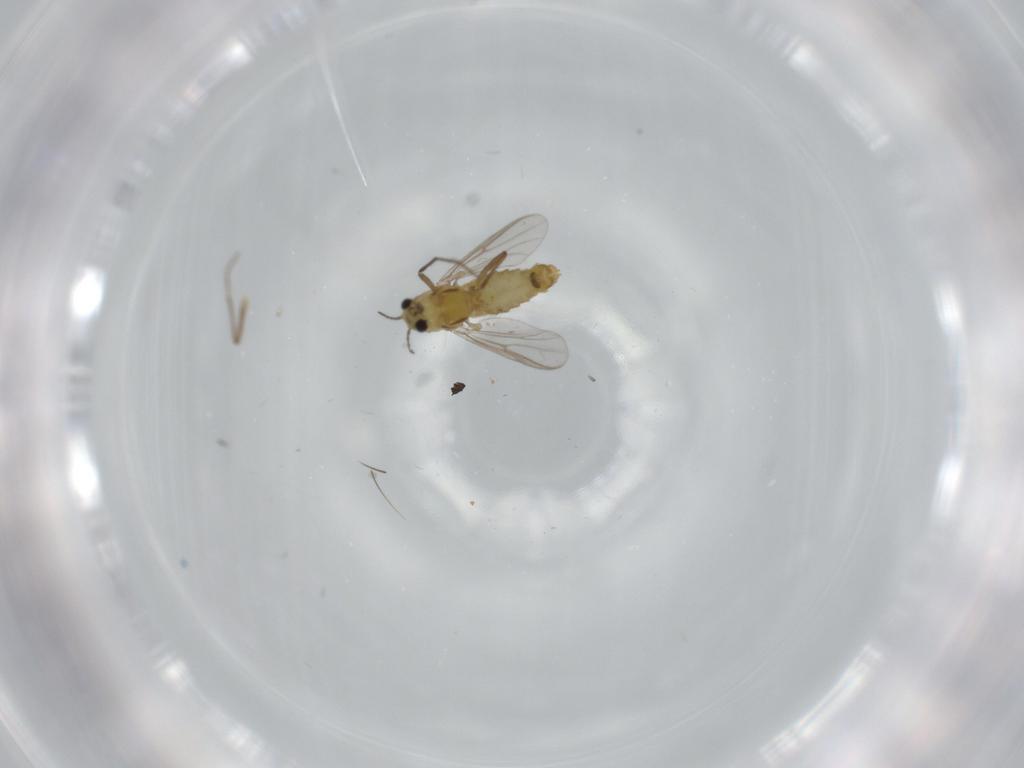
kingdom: Animalia
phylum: Arthropoda
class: Insecta
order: Diptera
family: Chironomidae
